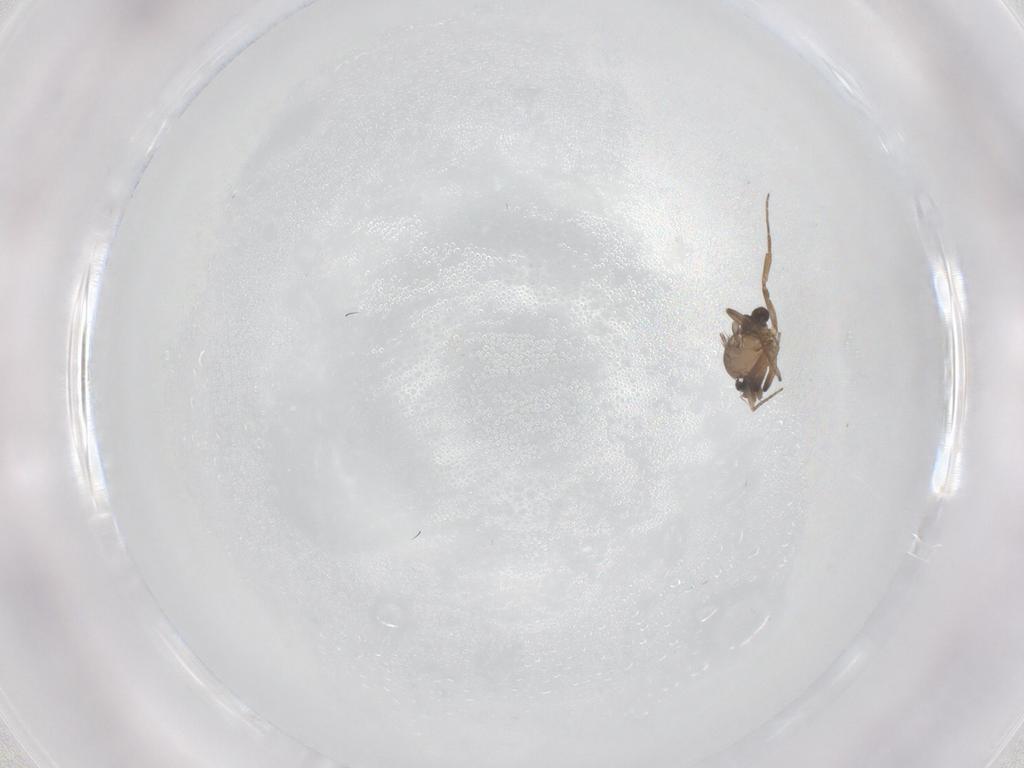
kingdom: Animalia
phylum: Arthropoda
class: Insecta
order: Diptera
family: Phoridae
